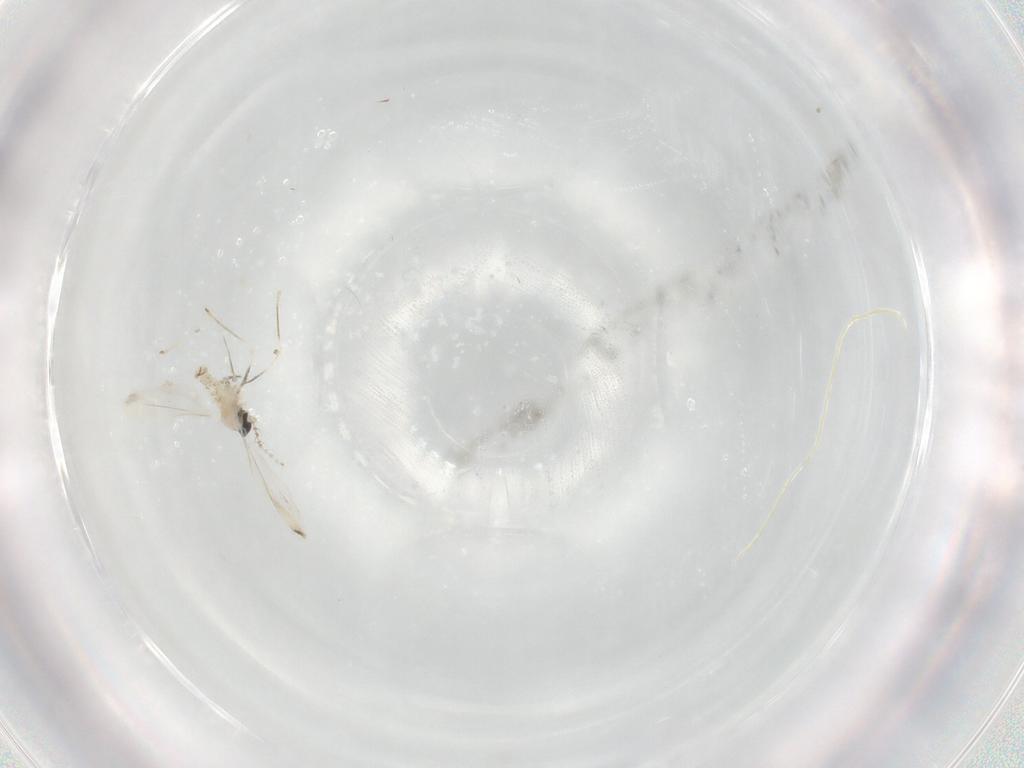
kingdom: Animalia
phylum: Arthropoda
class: Insecta
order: Diptera
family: Cecidomyiidae
